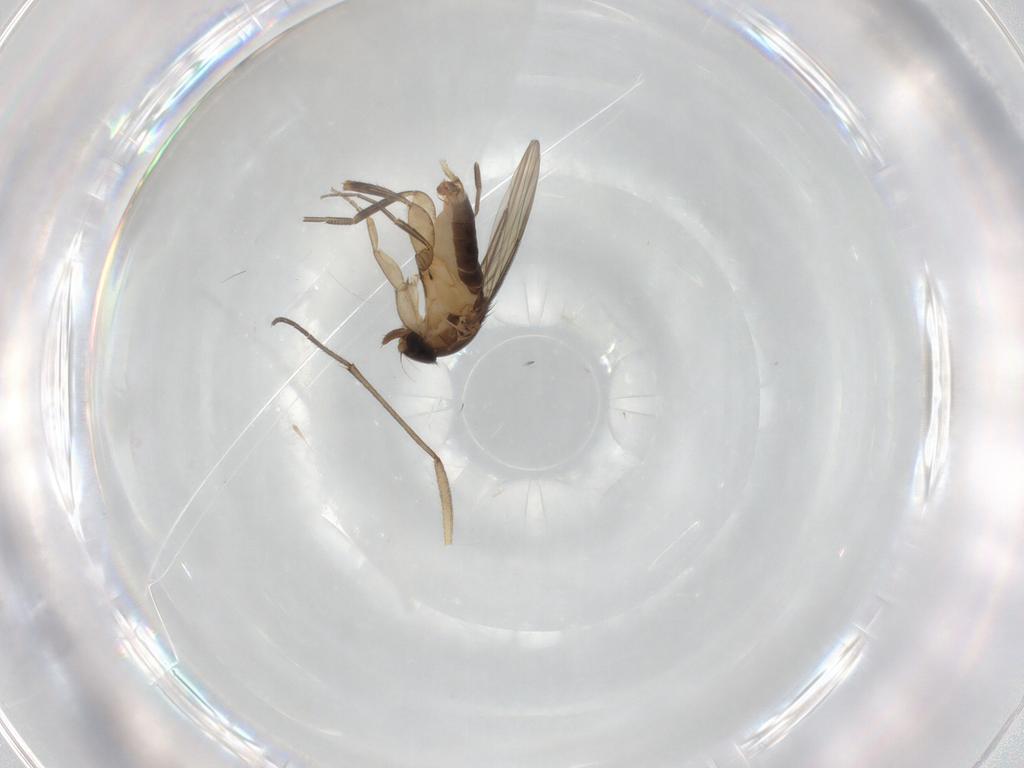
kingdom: Animalia
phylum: Arthropoda
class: Insecta
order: Diptera
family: Phoridae
